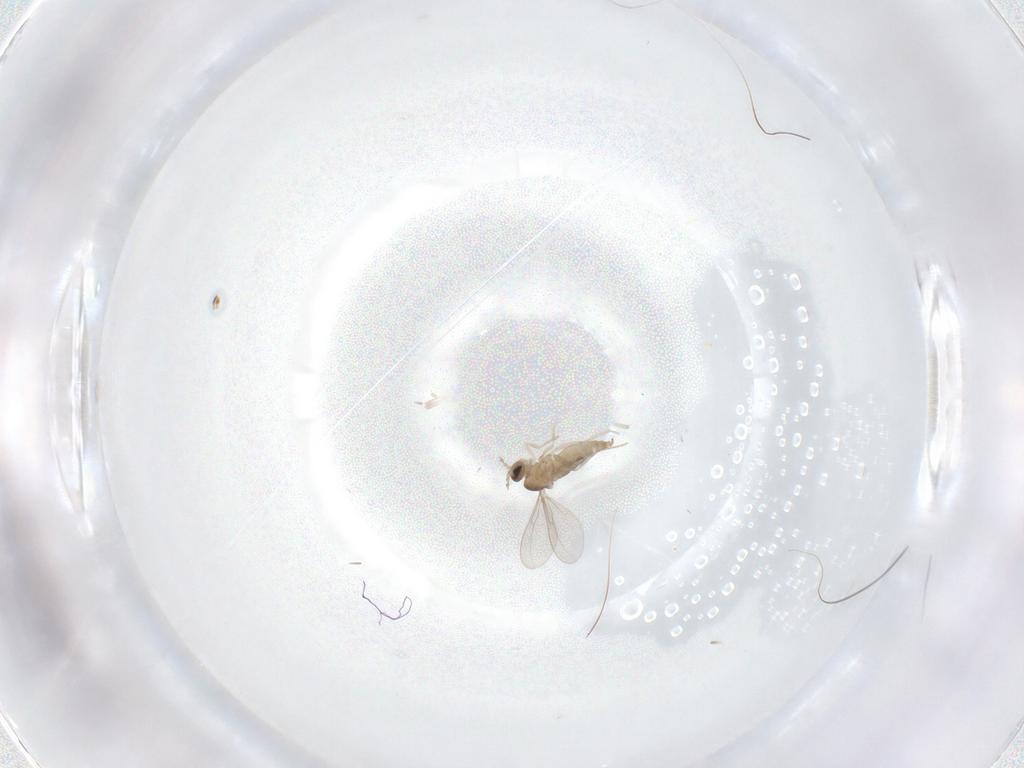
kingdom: Animalia
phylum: Arthropoda
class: Insecta
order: Diptera
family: Cecidomyiidae
